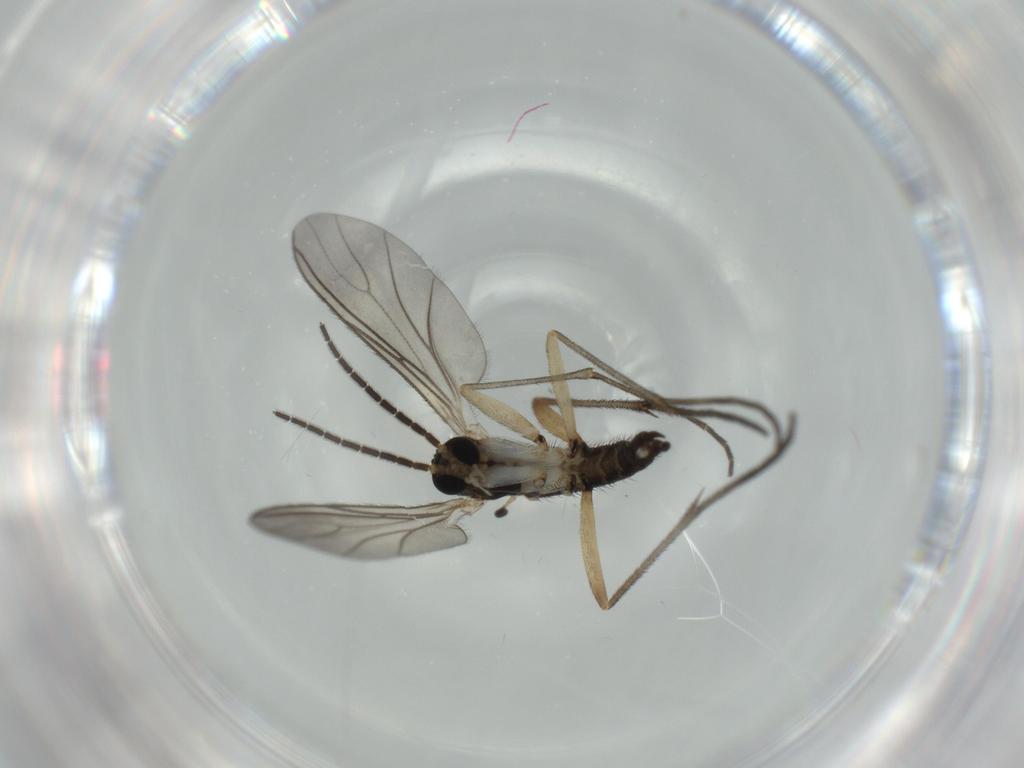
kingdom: Animalia
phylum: Arthropoda
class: Insecta
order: Diptera
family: Sciaridae
